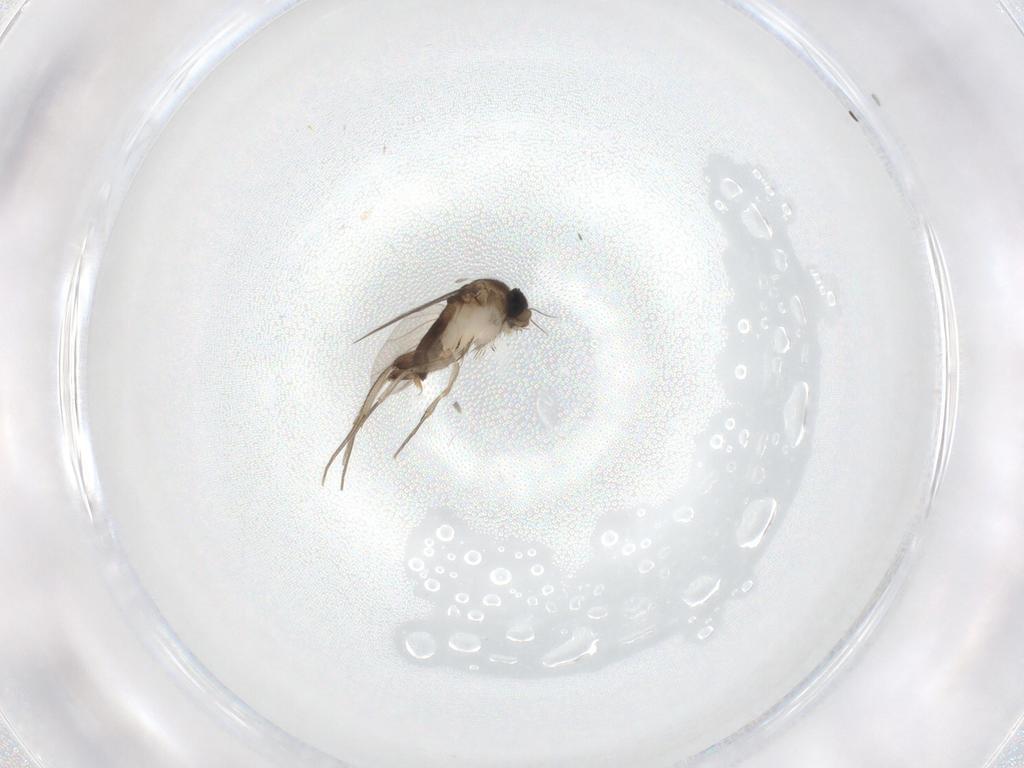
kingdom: Animalia
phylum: Arthropoda
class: Insecta
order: Diptera
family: Phoridae
